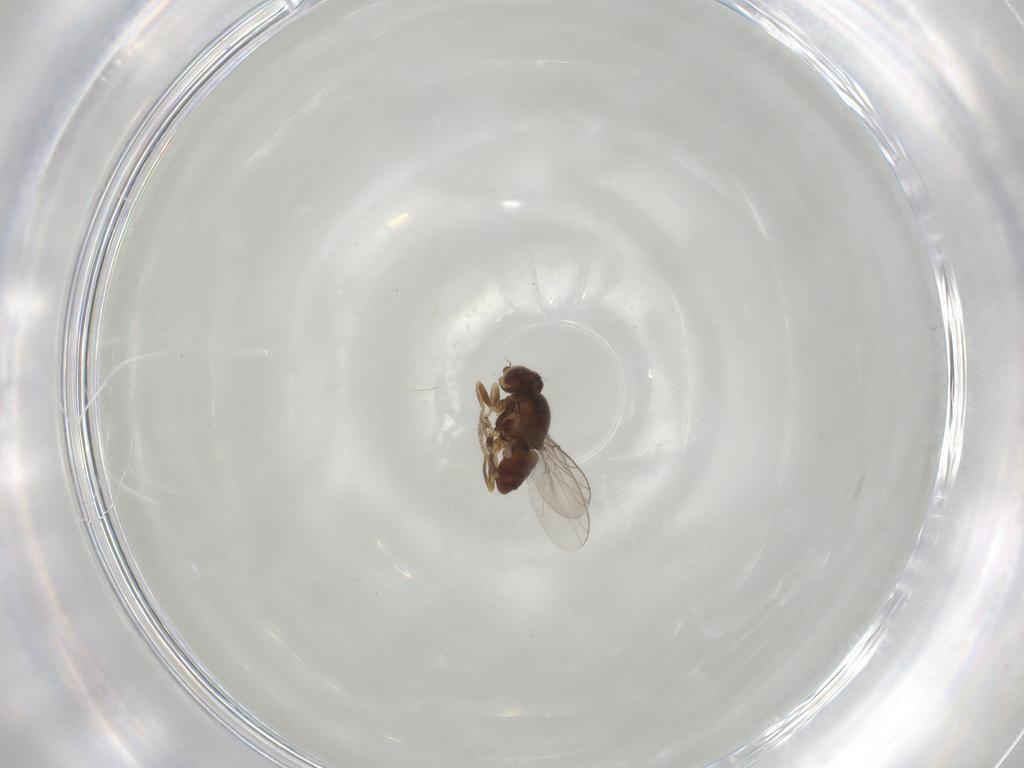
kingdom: Animalia
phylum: Arthropoda
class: Insecta
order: Diptera
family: Chloropidae
